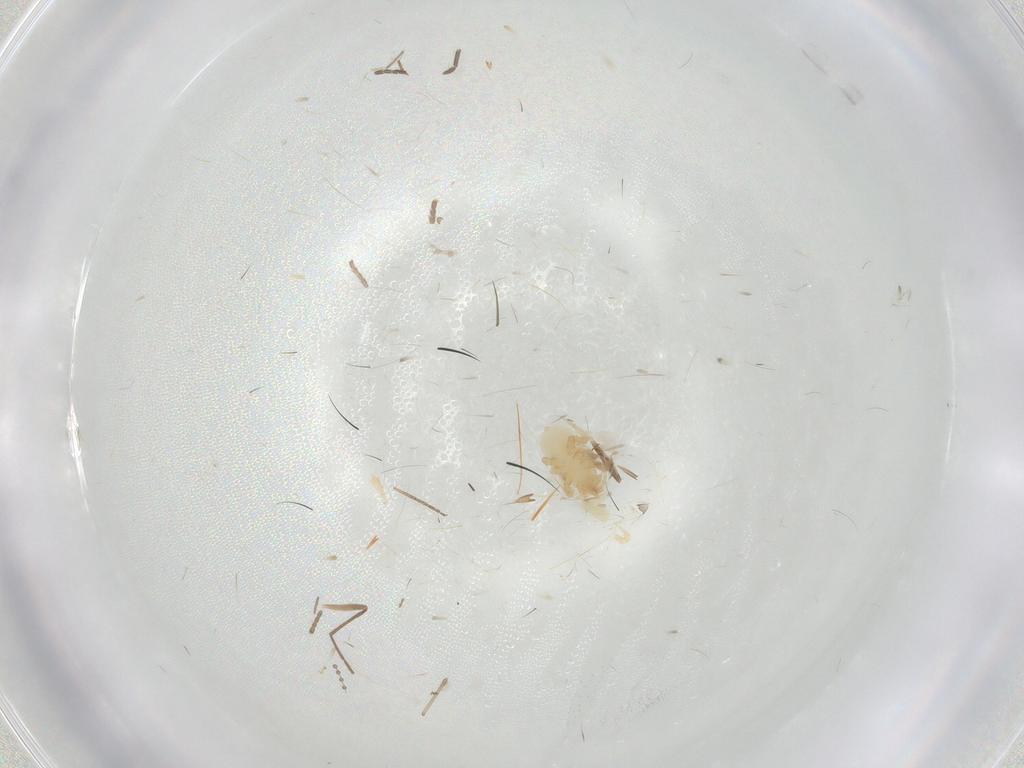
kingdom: Animalia
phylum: Arthropoda
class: Arachnida
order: Mesostigmata
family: Parasitidae
